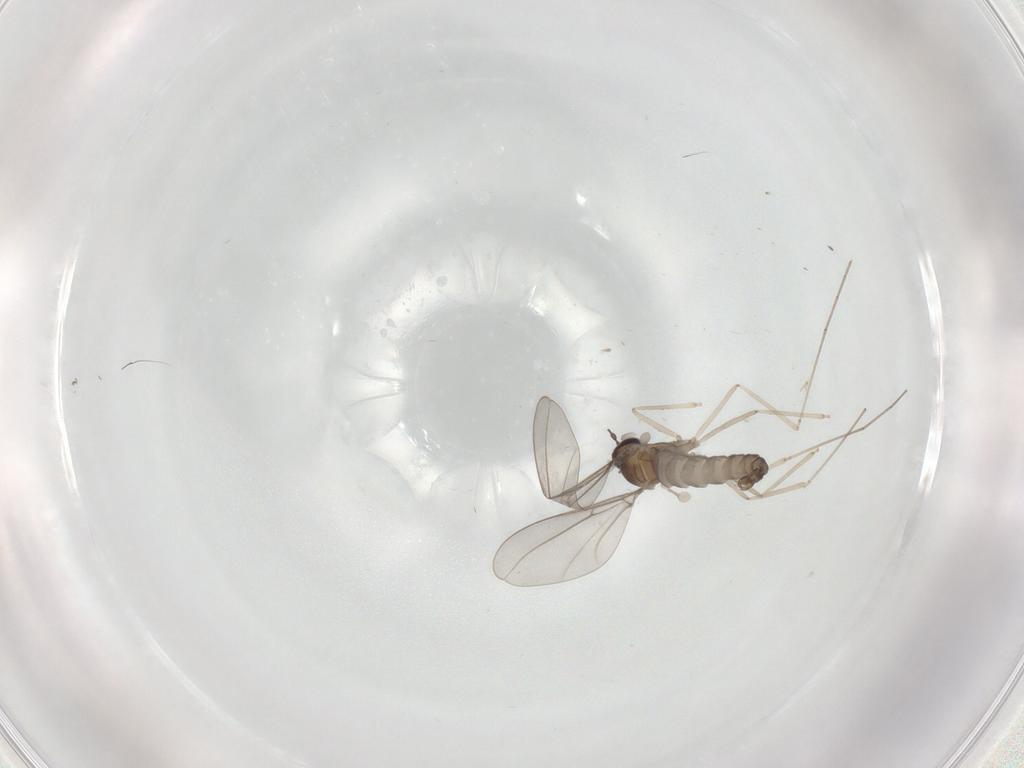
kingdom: Animalia
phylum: Arthropoda
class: Insecta
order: Diptera
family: Cecidomyiidae
